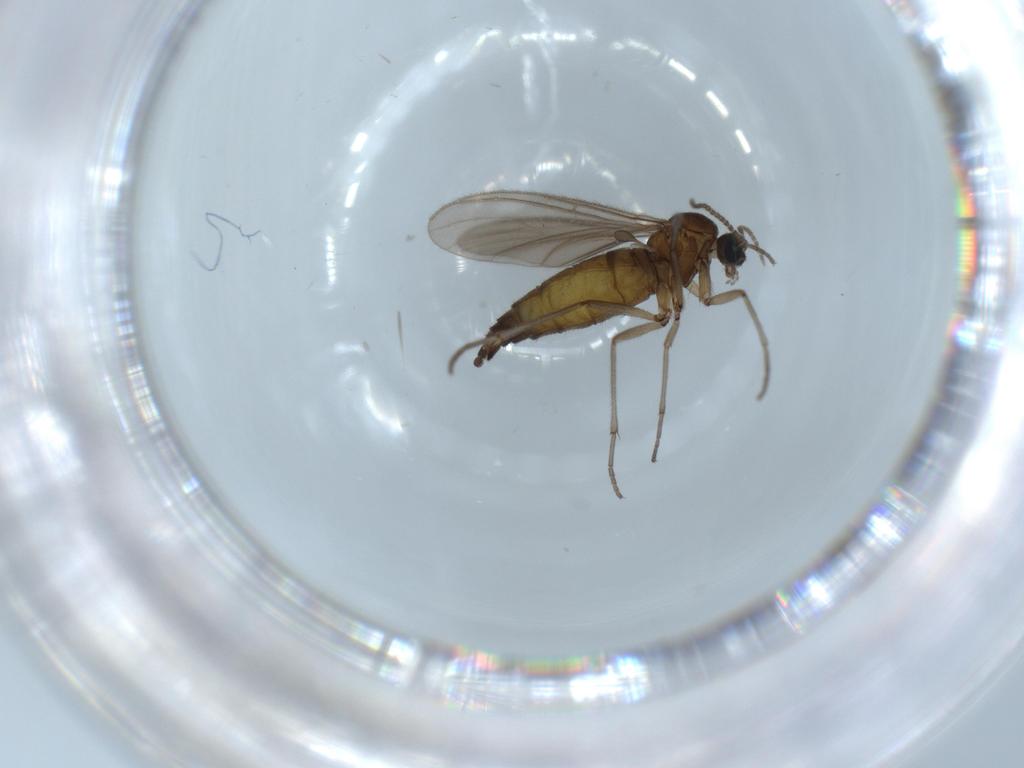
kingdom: Animalia
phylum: Arthropoda
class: Insecta
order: Diptera
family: Sciaridae
